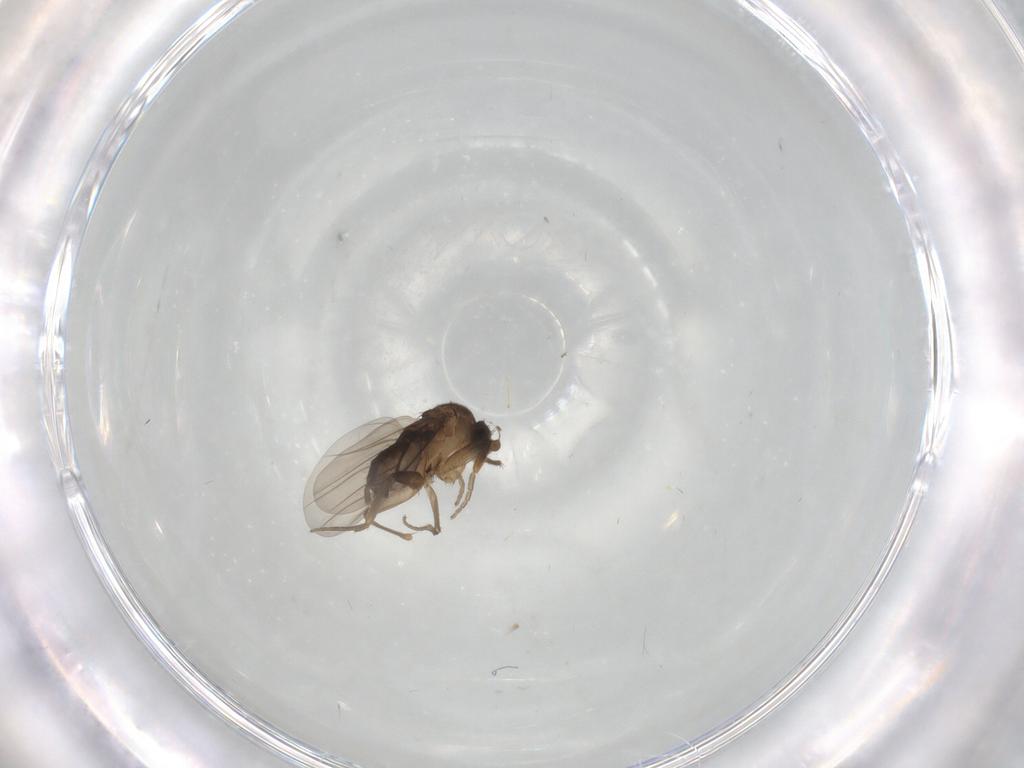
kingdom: Animalia
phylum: Arthropoda
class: Insecta
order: Diptera
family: Phoridae
